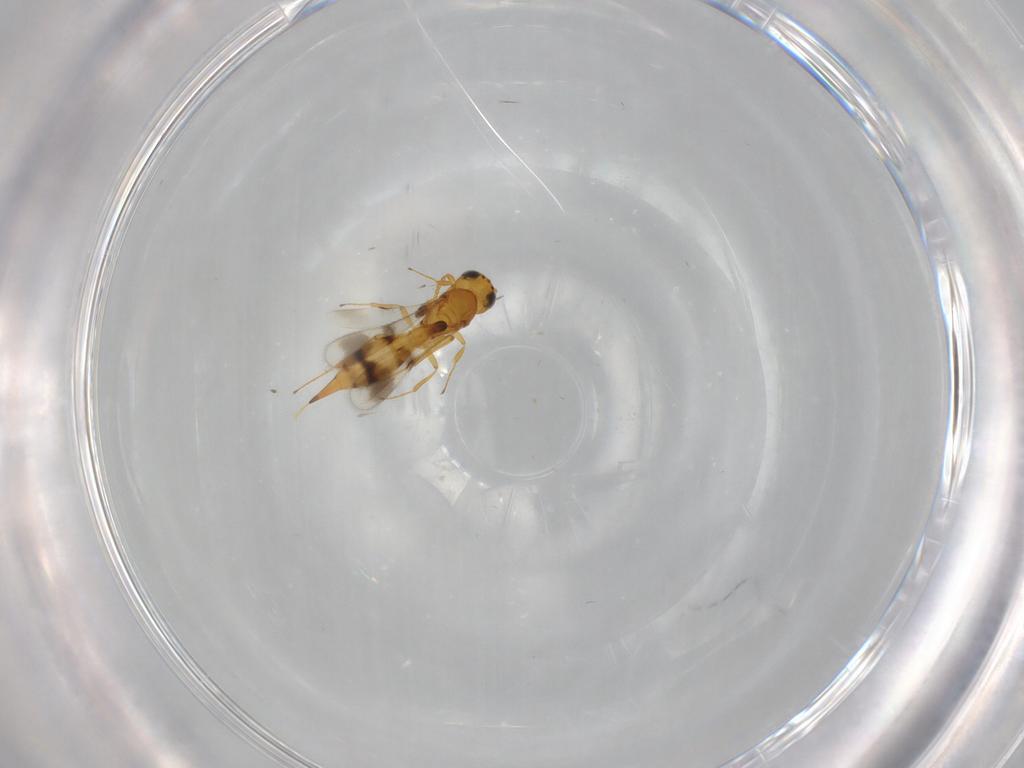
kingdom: Animalia
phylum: Arthropoda
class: Insecta
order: Hymenoptera
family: Scelionidae
